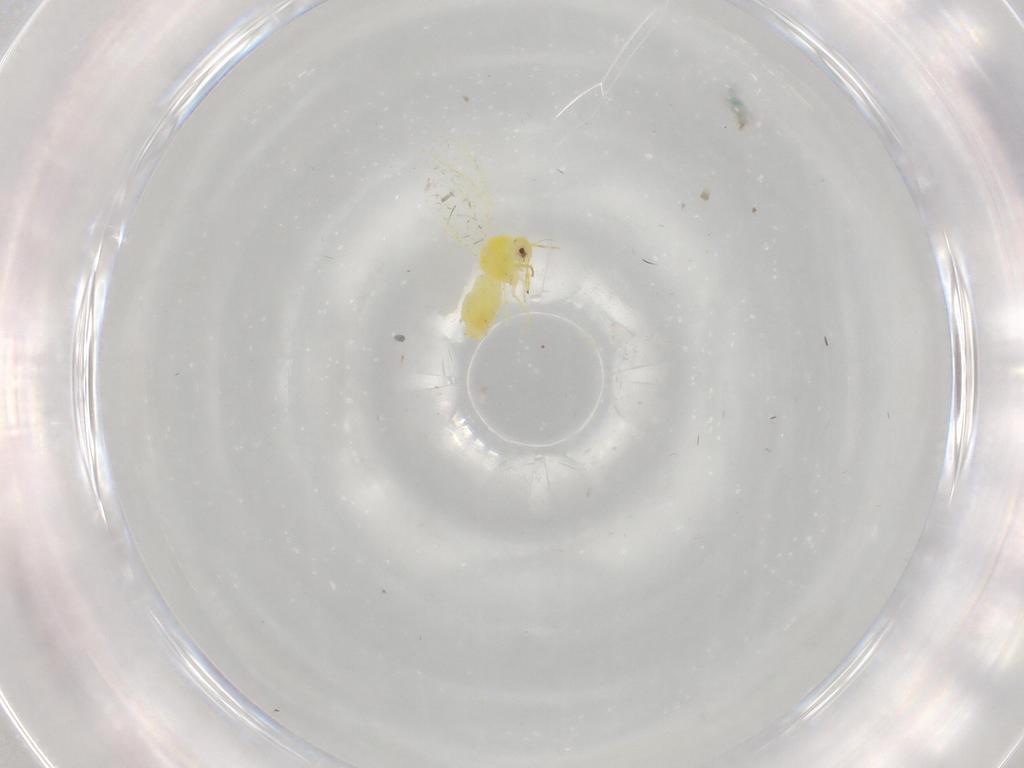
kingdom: Animalia
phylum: Arthropoda
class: Insecta
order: Hemiptera
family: Aleyrodidae
